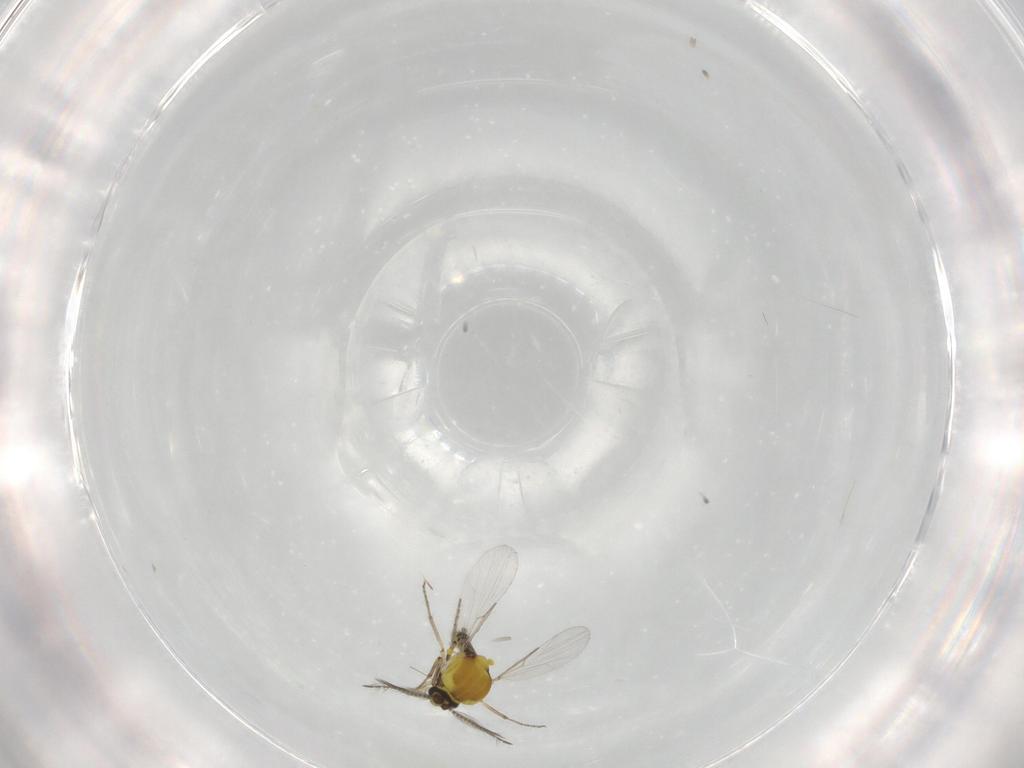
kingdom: Animalia
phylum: Arthropoda
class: Insecta
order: Diptera
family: Ceratopogonidae
